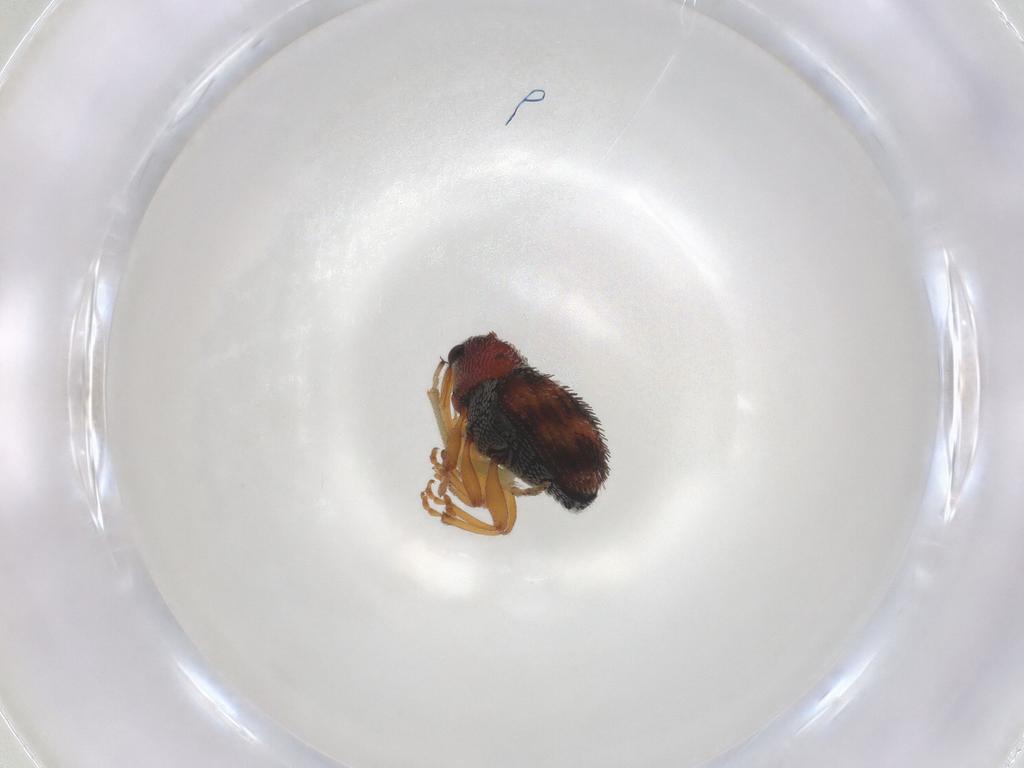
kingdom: Animalia
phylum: Arthropoda
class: Insecta
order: Coleoptera
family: Curculionidae
